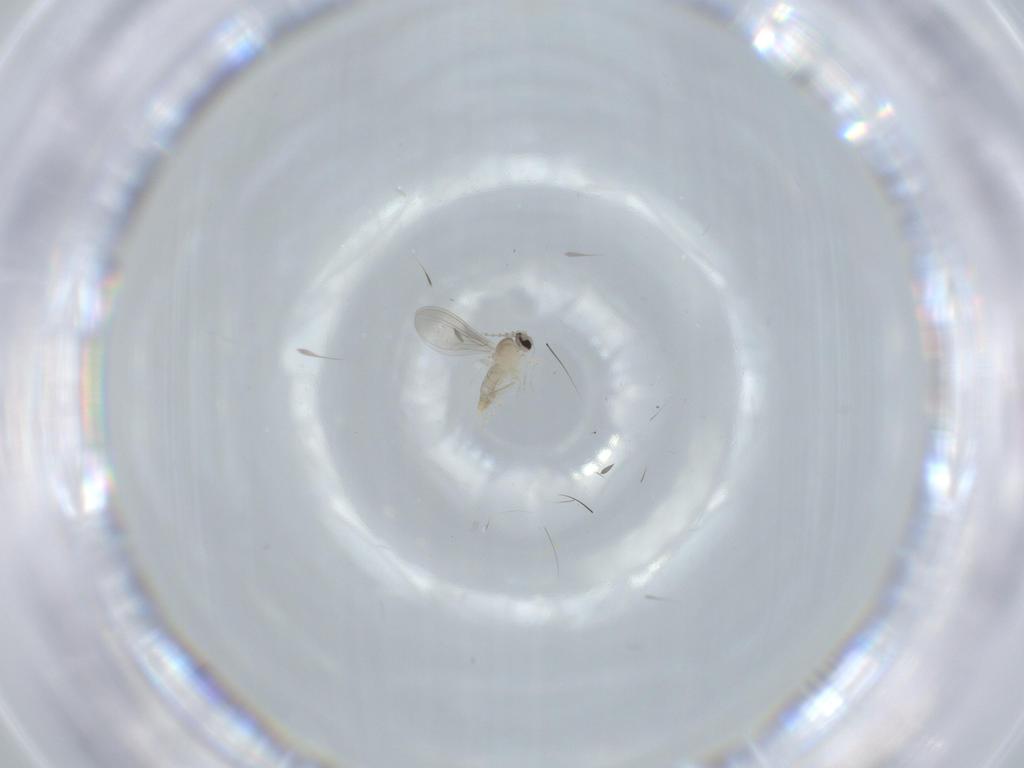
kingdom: Animalia
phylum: Arthropoda
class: Insecta
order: Diptera
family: Cecidomyiidae
